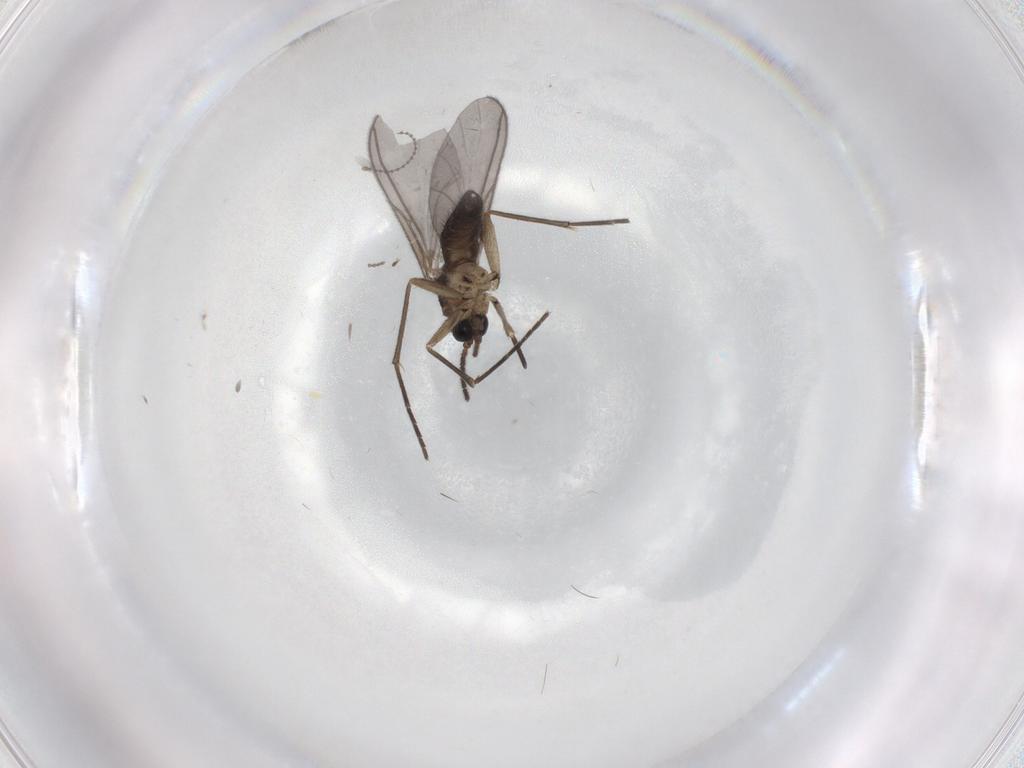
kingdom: Animalia
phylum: Arthropoda
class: Insecta
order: Diptera
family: Sciaridae
